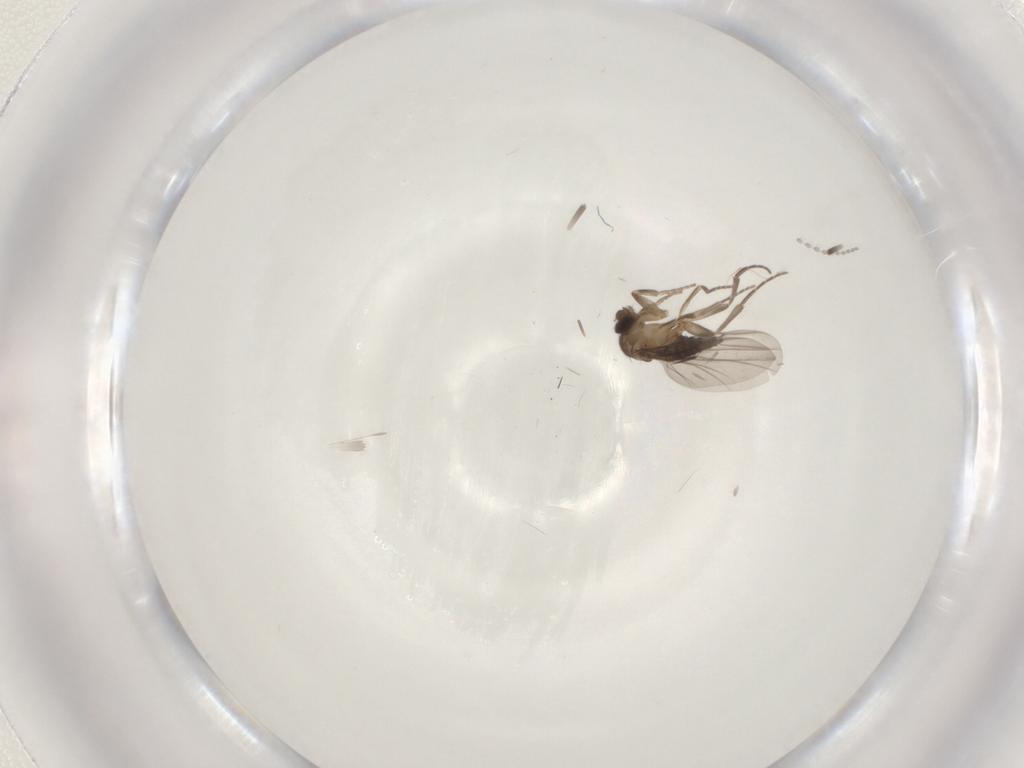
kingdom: Animalia
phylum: Arthropoda
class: Insecta
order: Diptera
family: Cecidomyiidae
